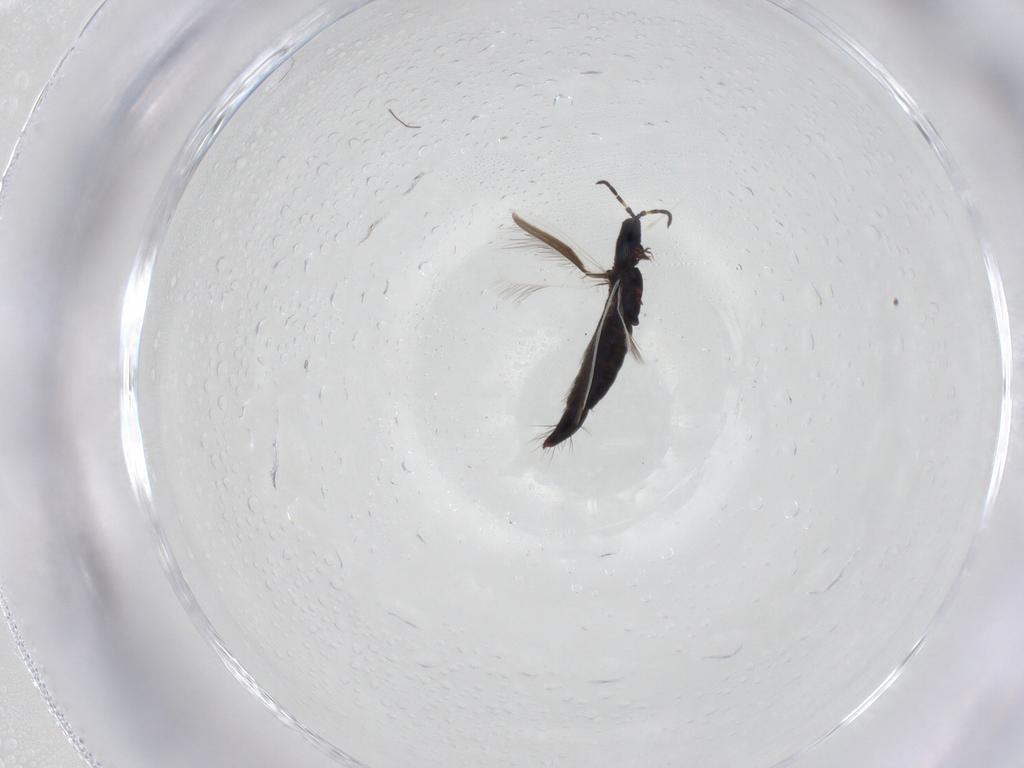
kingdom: Animalia
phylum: Arthropoda
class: Insecta
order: Thysanoptera
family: Aeolothripidae
